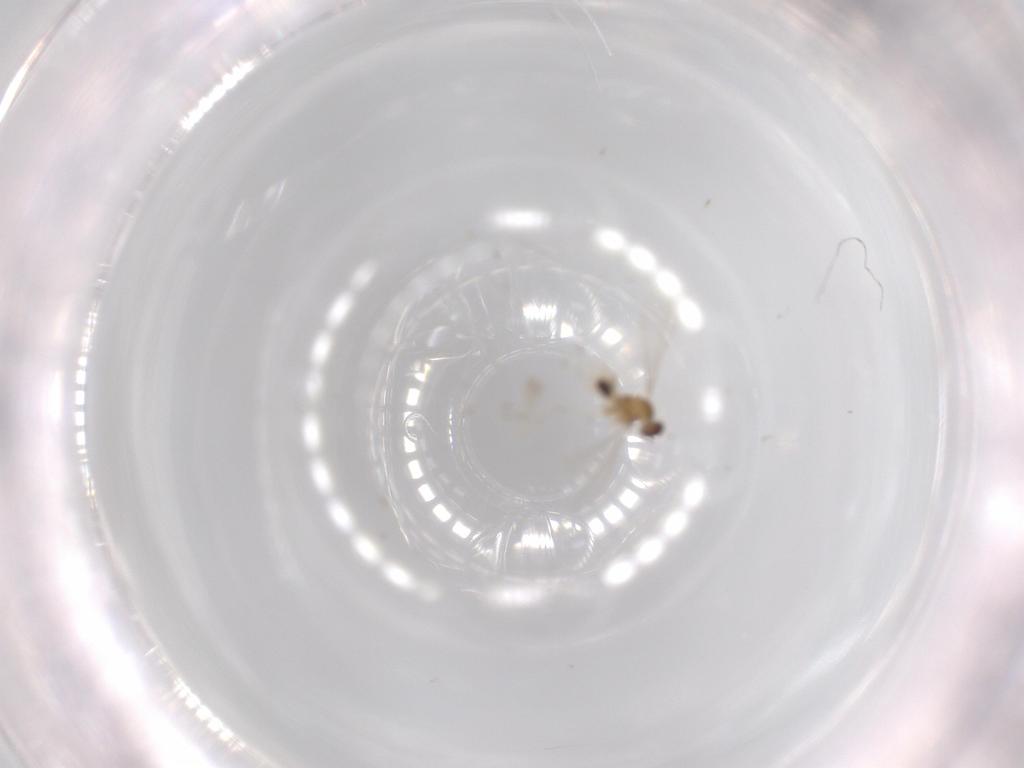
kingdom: Animalia
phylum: Arthropoda
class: Insecta
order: Diptera
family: Cecidomyiidae
